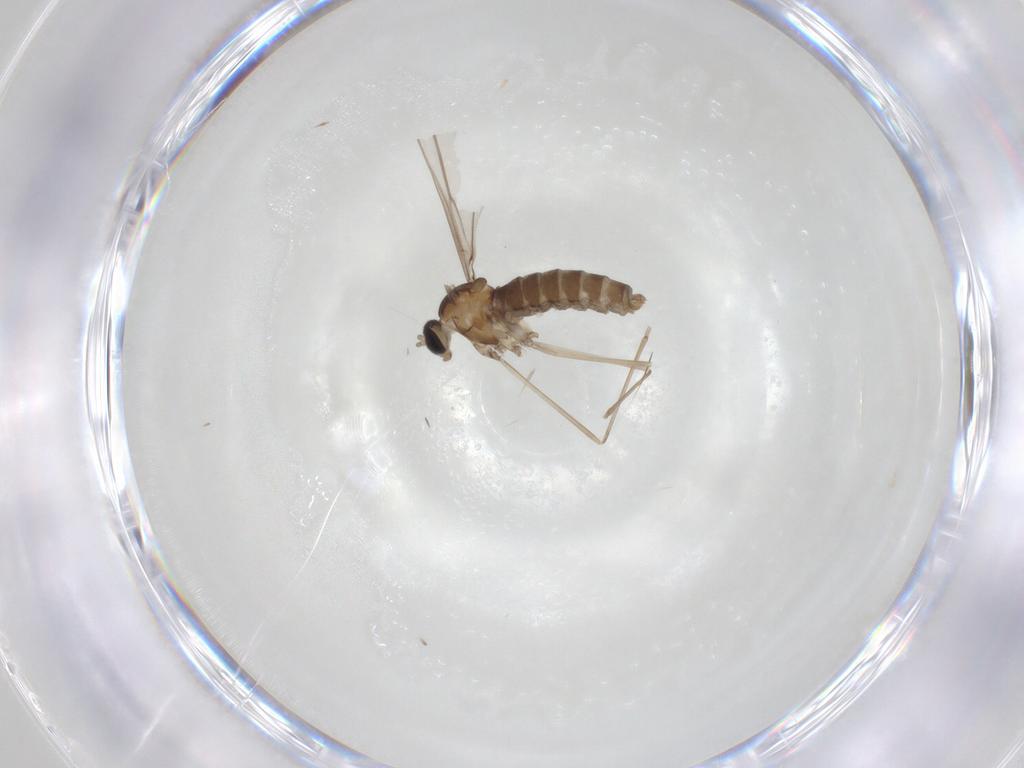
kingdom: Animalia
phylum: Arthropoda
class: Insecta
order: Diptera
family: Cecidomyiidae
